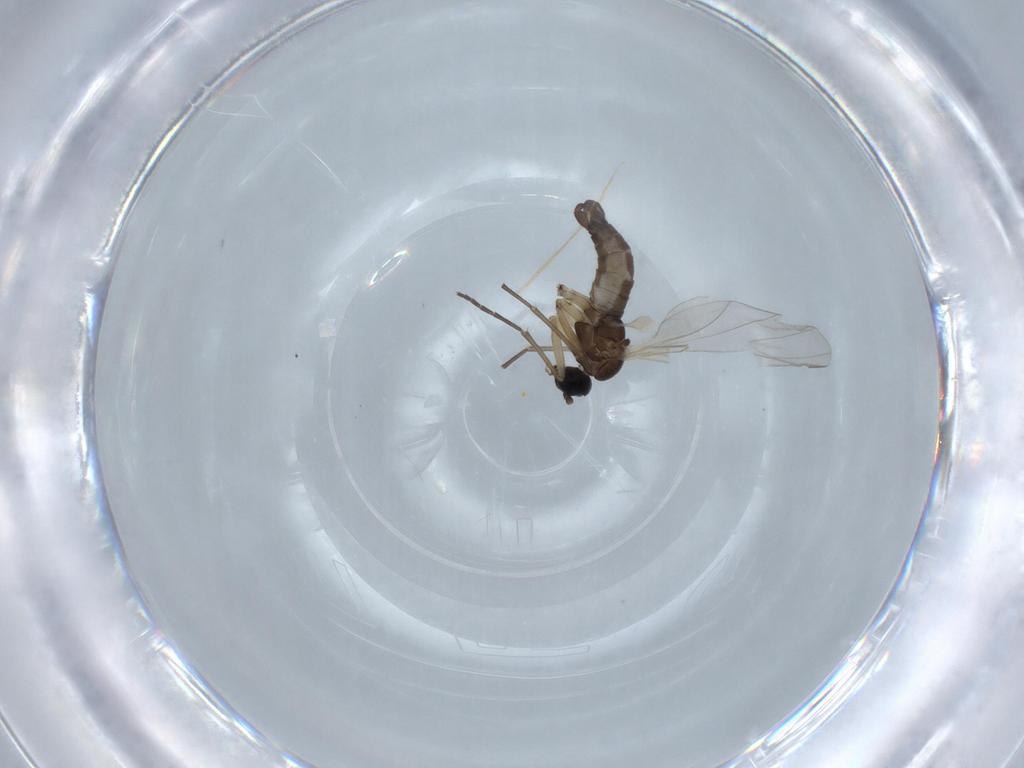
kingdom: Animalia
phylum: Arthropoda
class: Insecta
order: Diptera
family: Sciaridae
